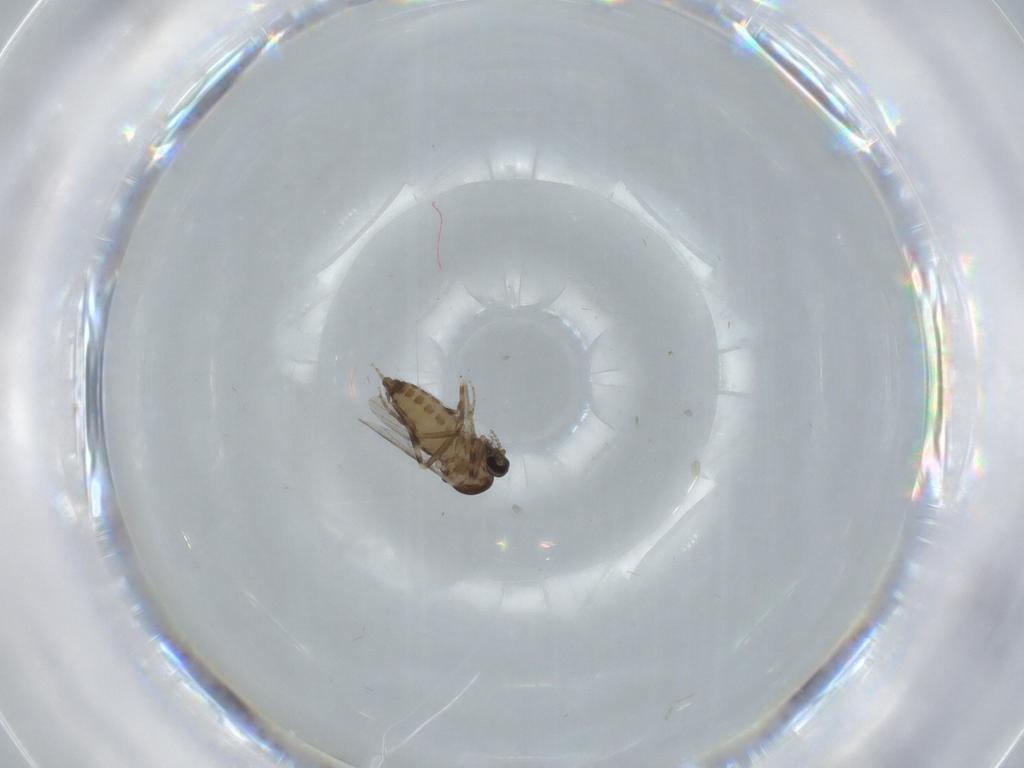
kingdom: Animalia
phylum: Arthropoda
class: Insecta
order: Diptera
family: Ceratopogonidae
